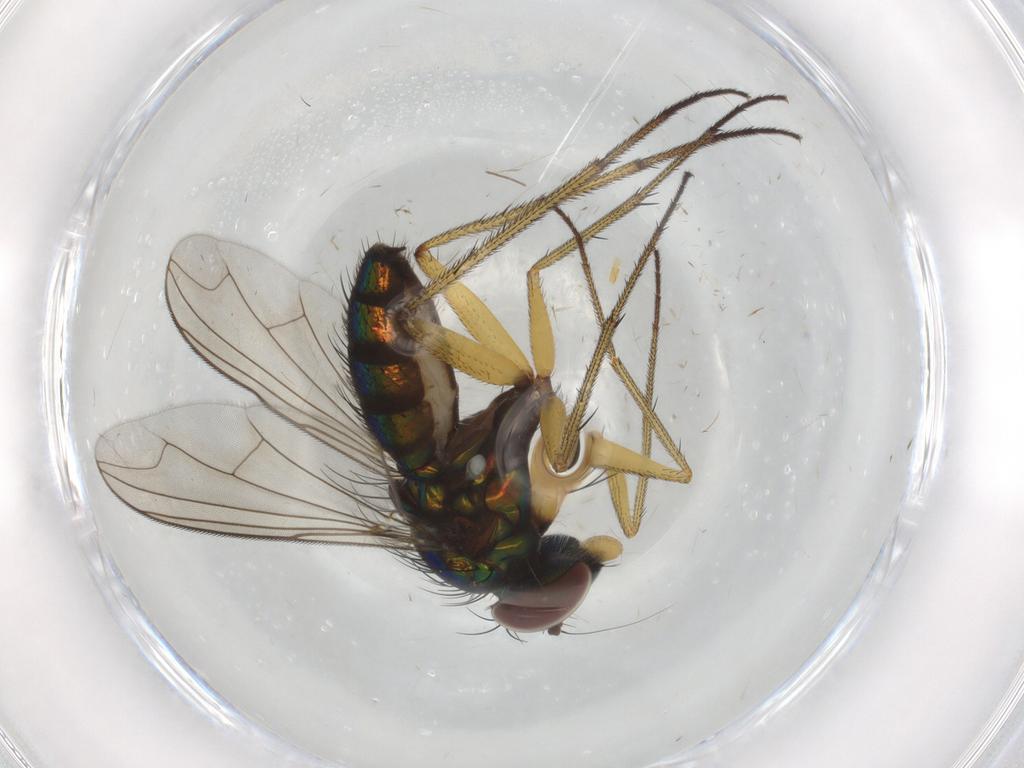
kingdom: Animalia
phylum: Arthropoda
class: Insecta
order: Diptera
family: Dolichopodidae
